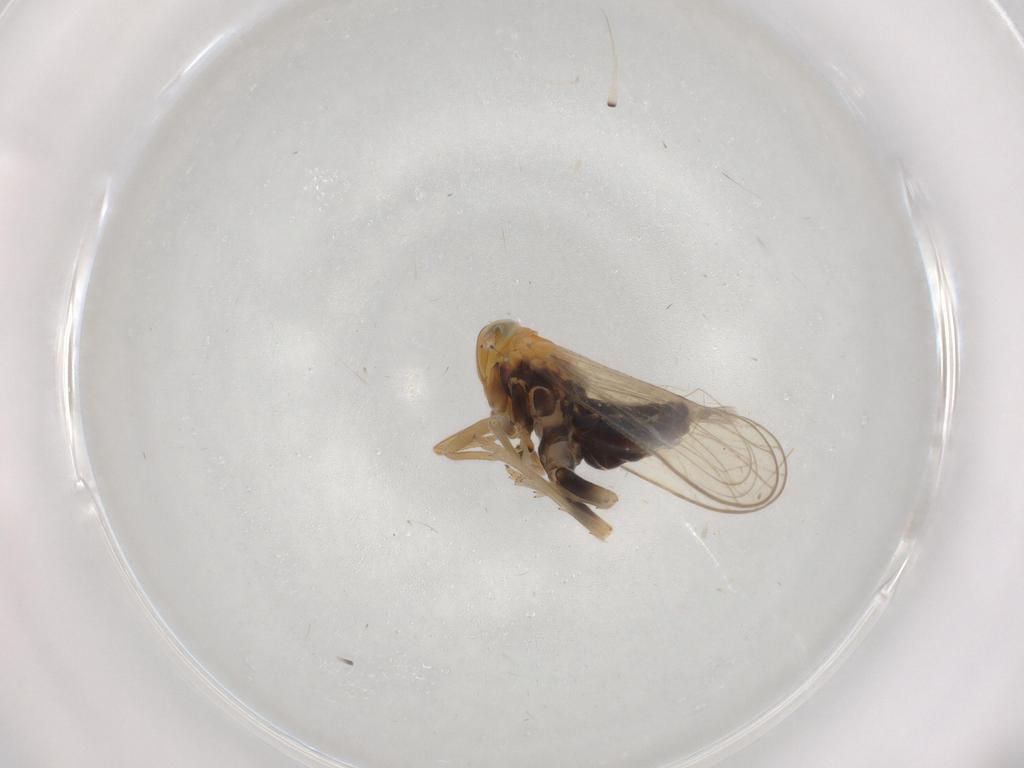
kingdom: Animalia
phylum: Arthropoda
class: Insecta
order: Hemiptera
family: Delphacidae
